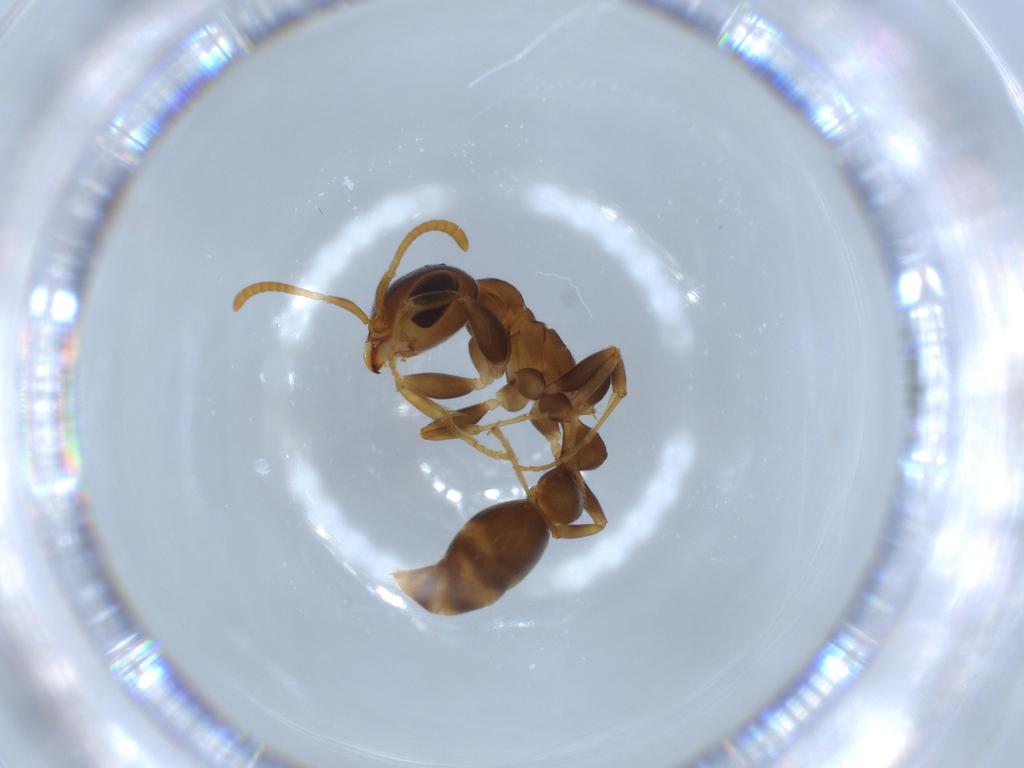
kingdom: Animalia
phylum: Arthropoda
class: Insecta
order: Hymenoptera
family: Formicidae
